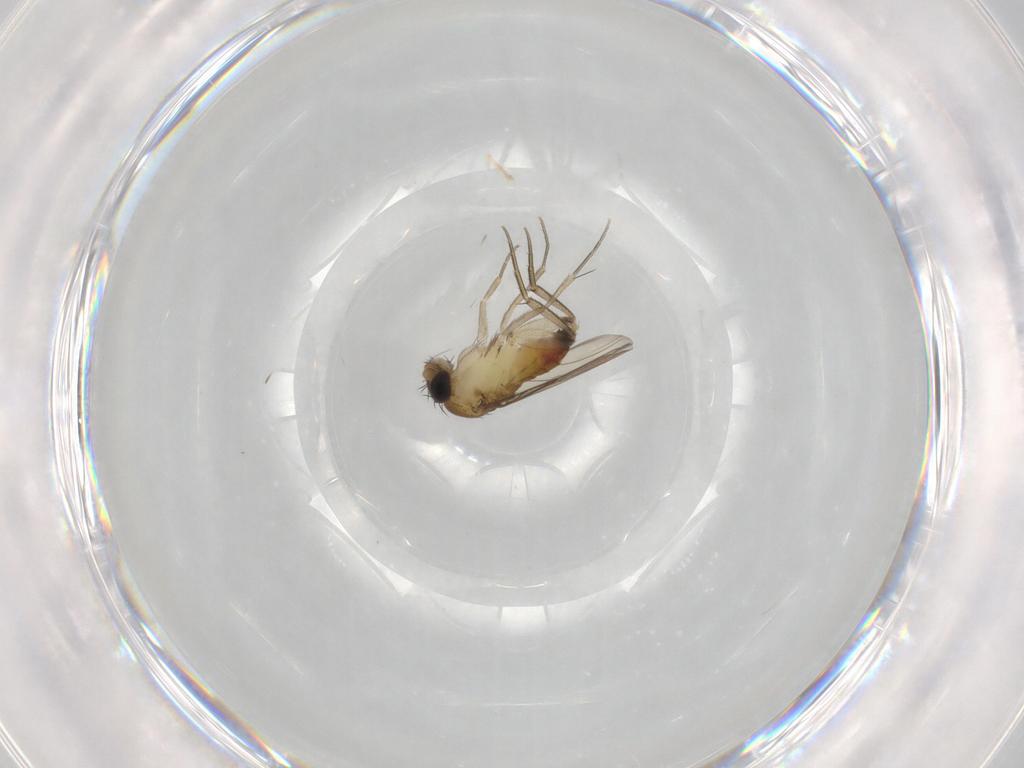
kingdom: Animalia
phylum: Arthropoda
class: Insecta
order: Diptera
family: Phoridae
